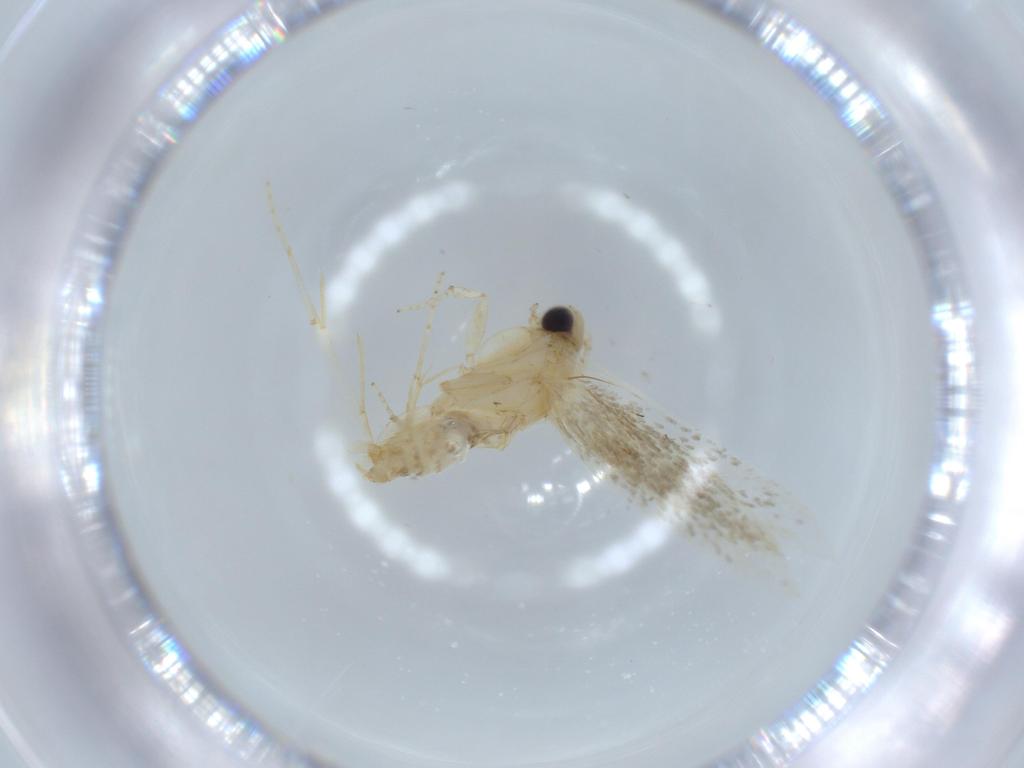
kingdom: Animalia
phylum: Arthropoda
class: Insecta
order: Lepidoptera
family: Tineidae
